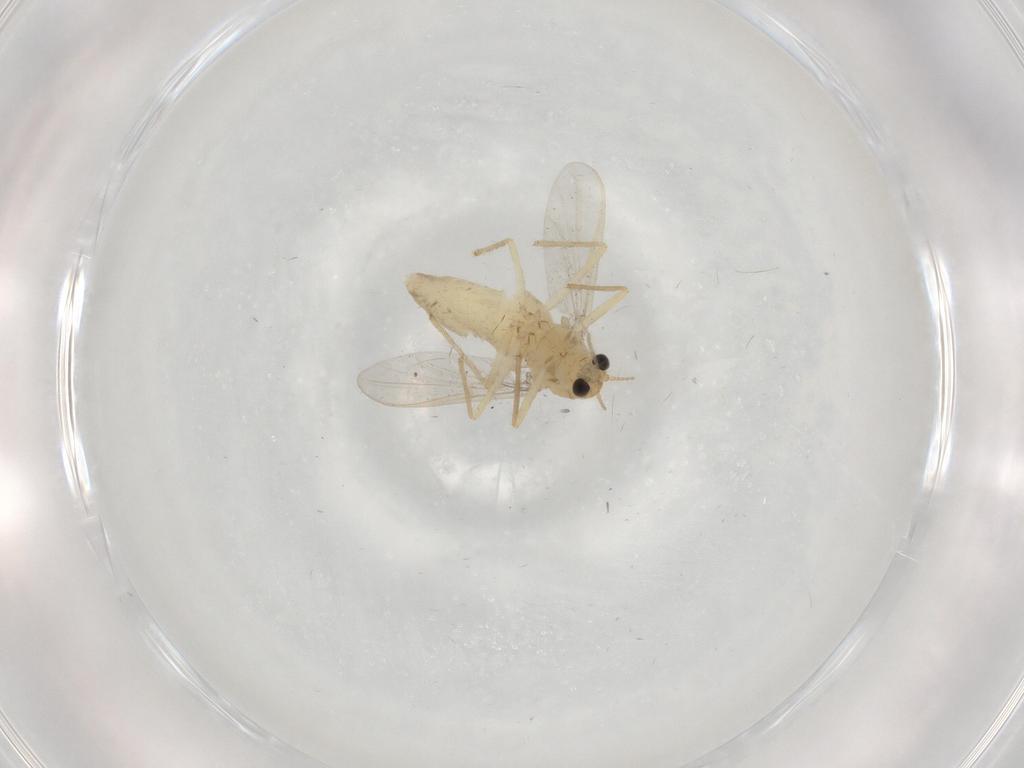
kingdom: Animalia
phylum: Arthropoda
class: Insecta
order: Diptera
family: Chironomidae
